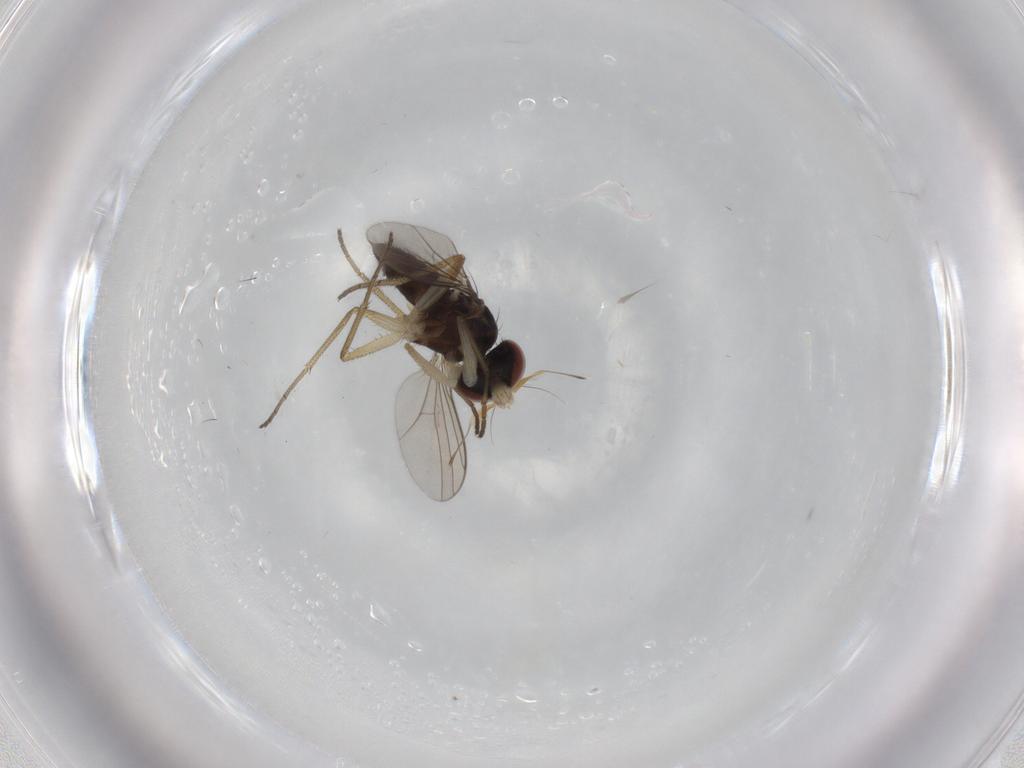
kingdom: Animalia
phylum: Arthropoda
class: Insecta
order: Diptera
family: Dolichopodidae
